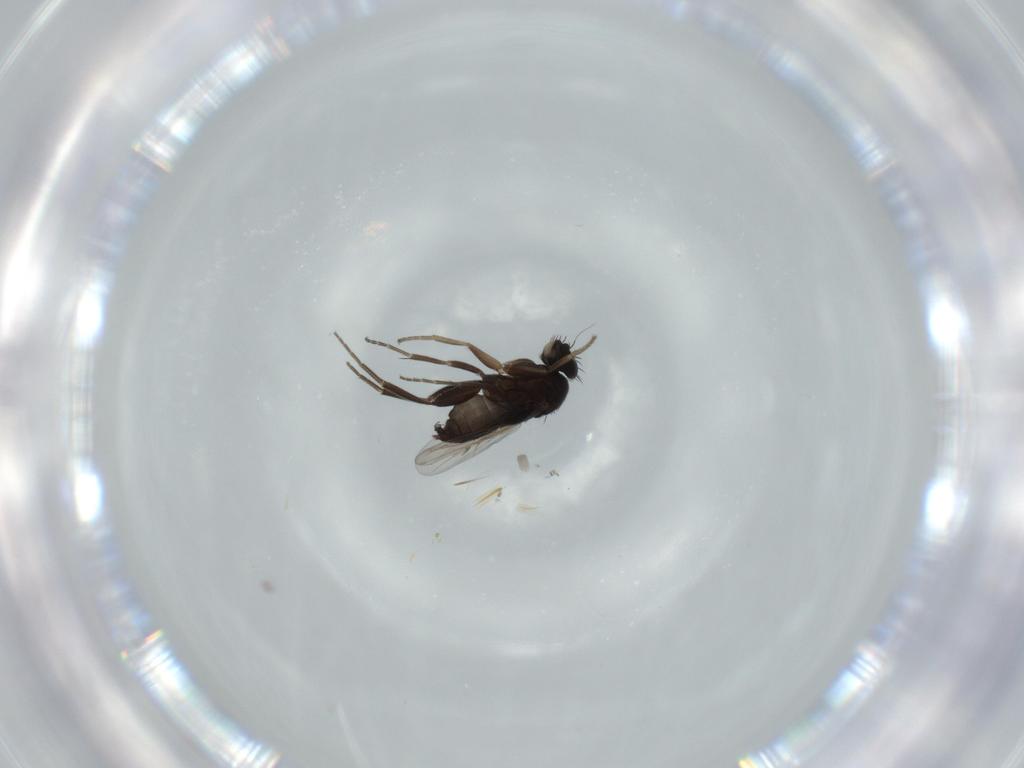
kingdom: Animalia
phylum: Arthropoda
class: Insecta
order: Diptera
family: Phoridae
